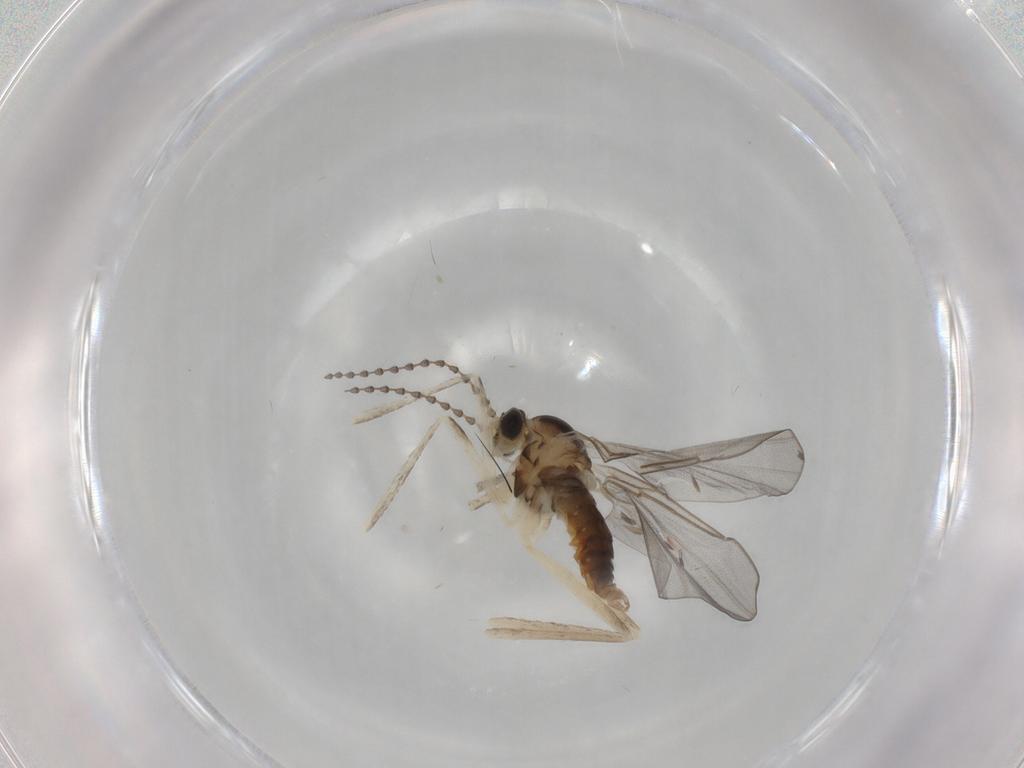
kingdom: Animalia
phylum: Arthropoda
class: Insecta
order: Diptera
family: Cecidomyiidae
